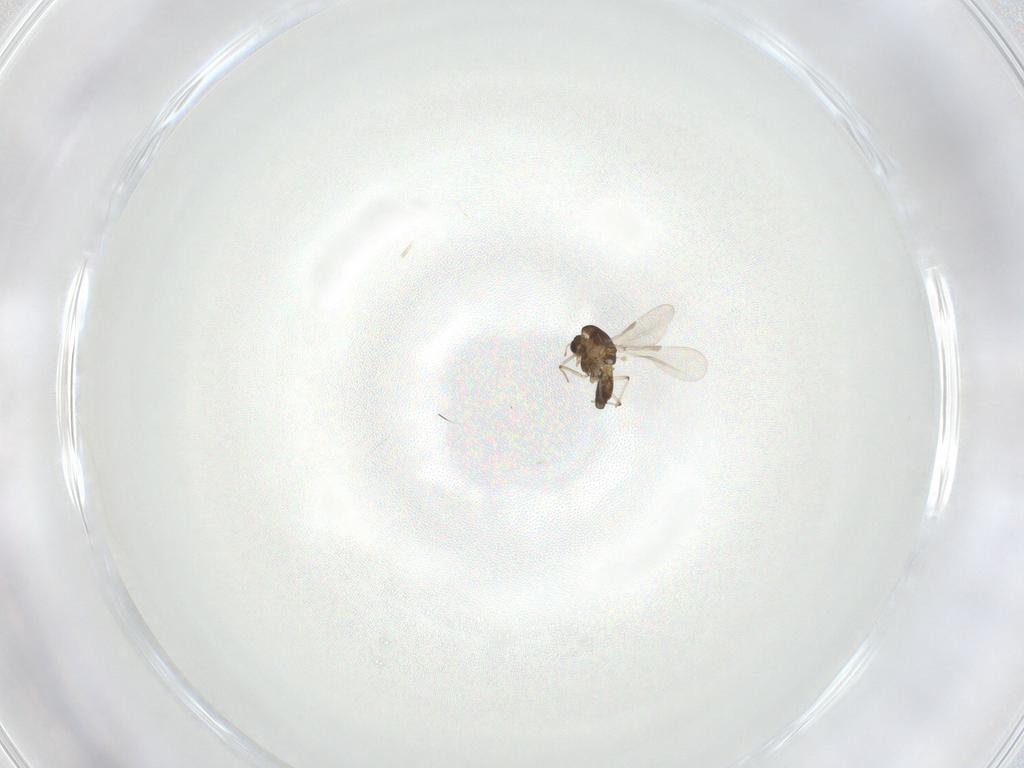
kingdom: Animalia
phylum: Arthropoda
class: Insecta
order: Diptera
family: Chironomidae
